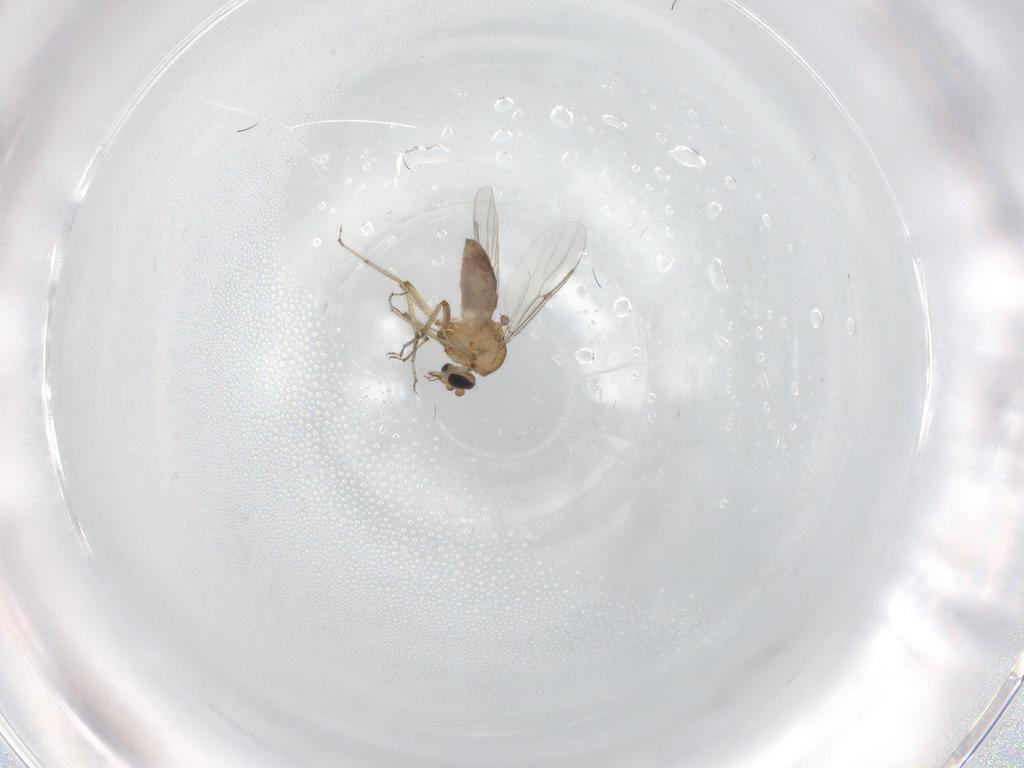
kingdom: Animalia
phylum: Arthropoda
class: Insecta
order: Diptera
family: Ceratopogonidae
